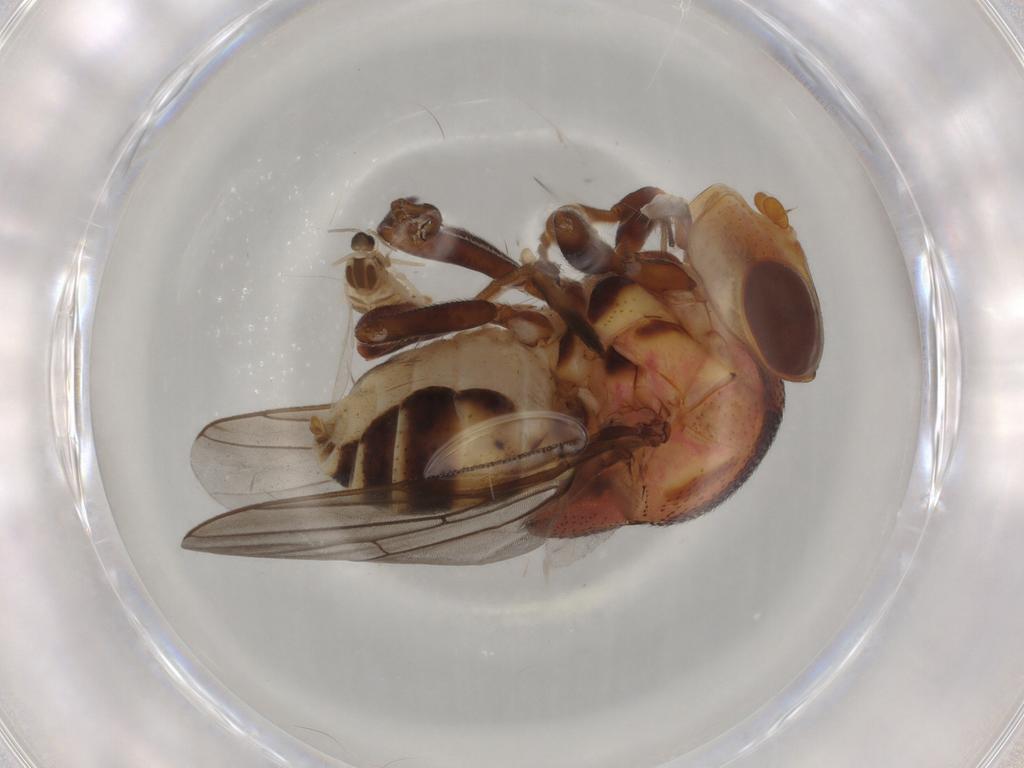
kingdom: Animalia
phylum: Arthropoda
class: Insecta
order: Diptera
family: Chloropidae
